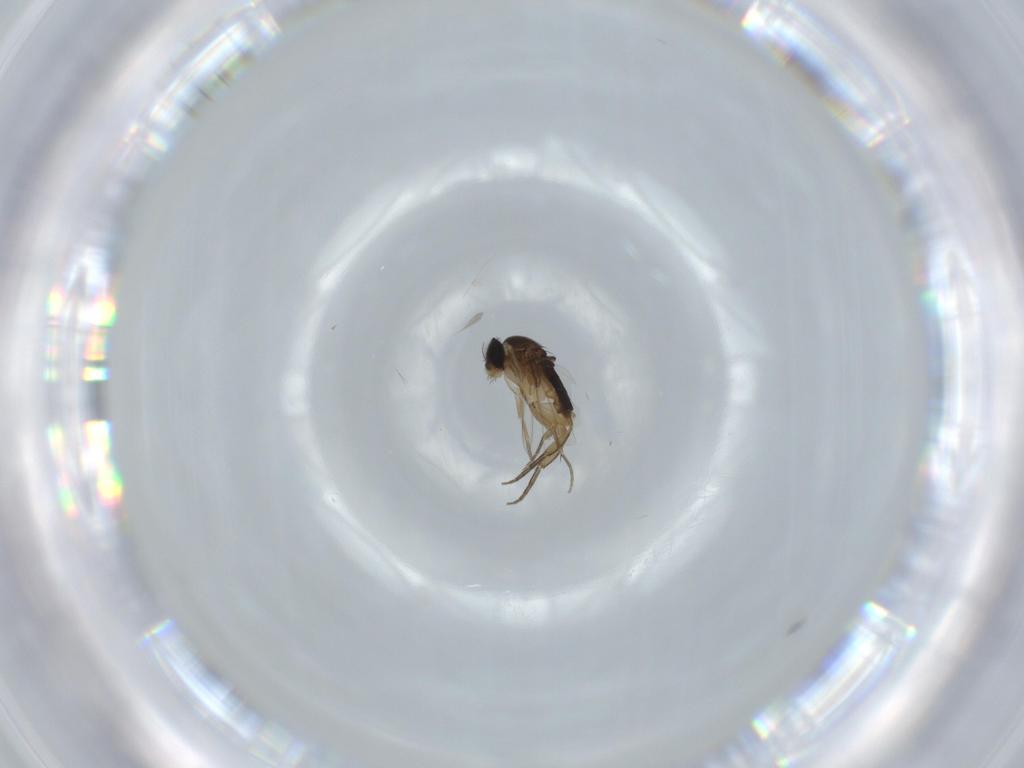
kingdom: Animalia
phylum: Arthropoda
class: Insecta
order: Diptera
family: Phoridae
